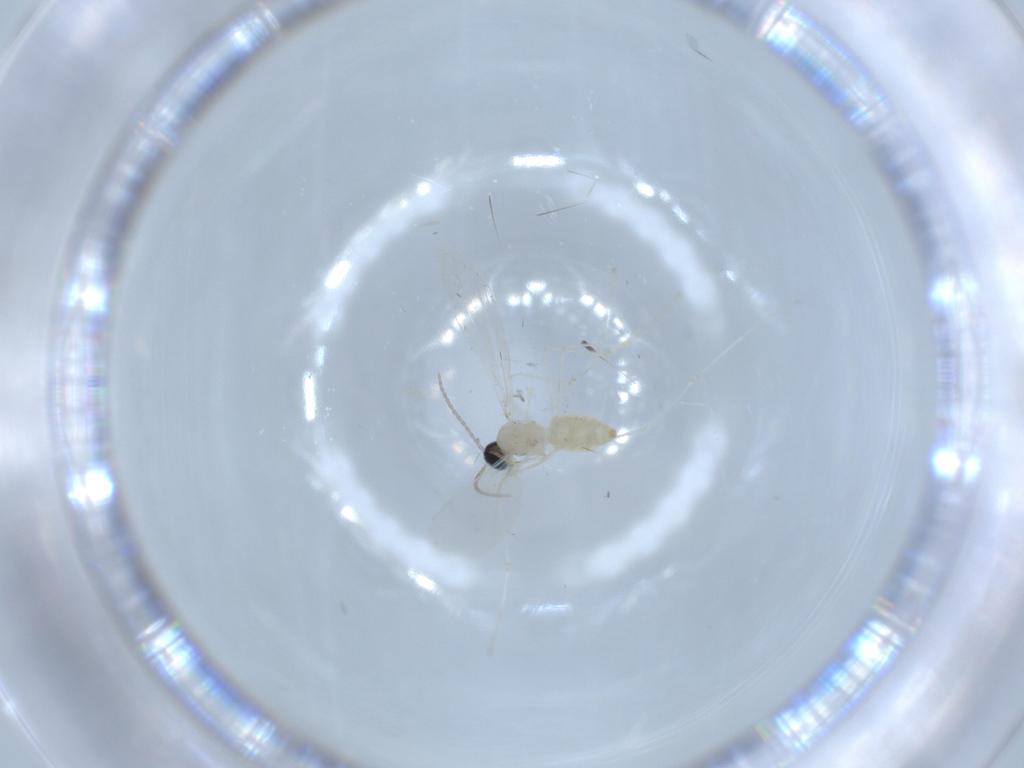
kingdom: Animalia
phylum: Arthropoda
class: Insecta
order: Diptera
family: Cecidomyiidae
